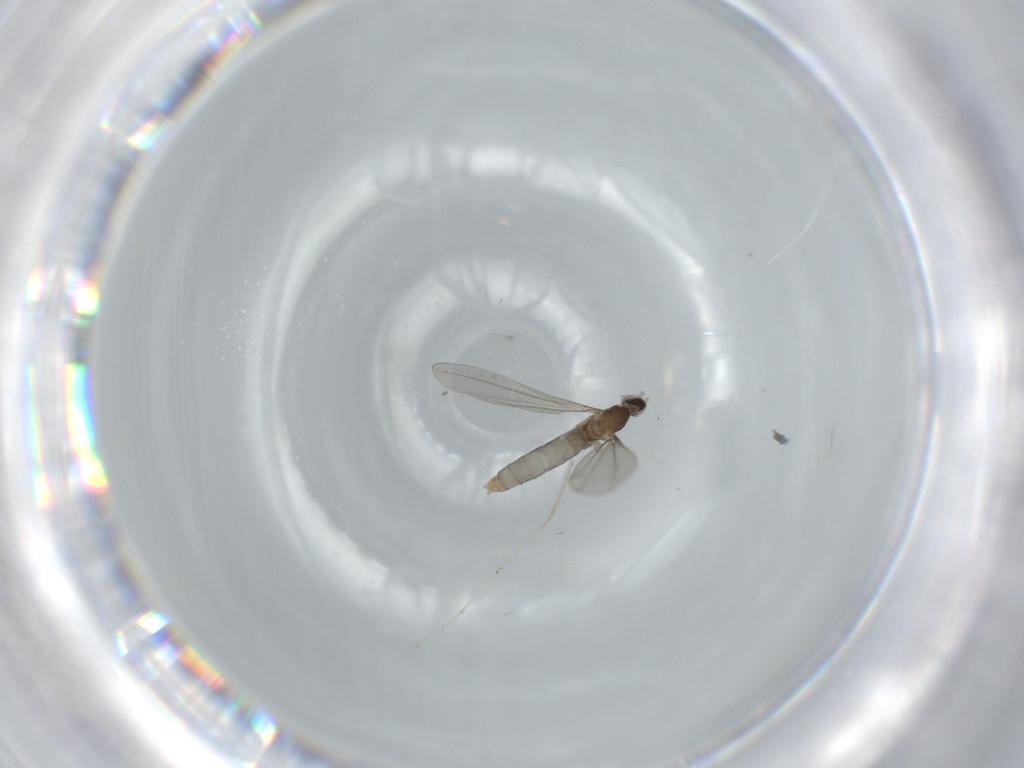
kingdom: Animalia
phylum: Arthropoda
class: Insecta
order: Diptera
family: Cecidomyiidae
